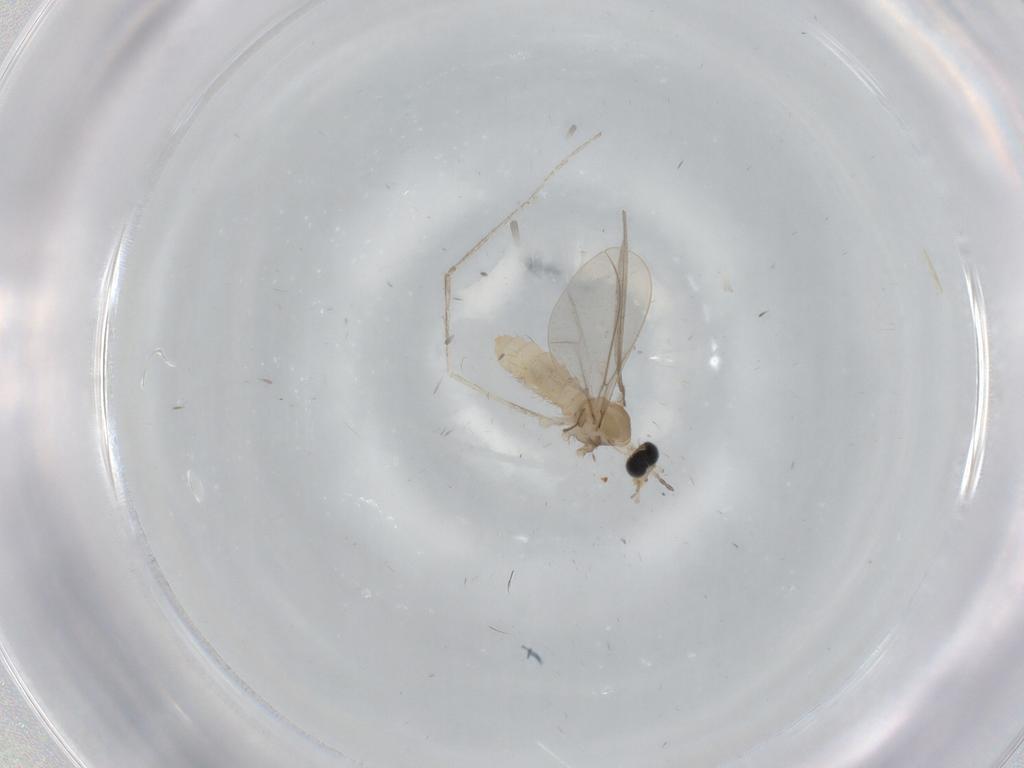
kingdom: Animalia
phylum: Arthropoda
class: Insecta
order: Diptera
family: Cecidomyiidae
